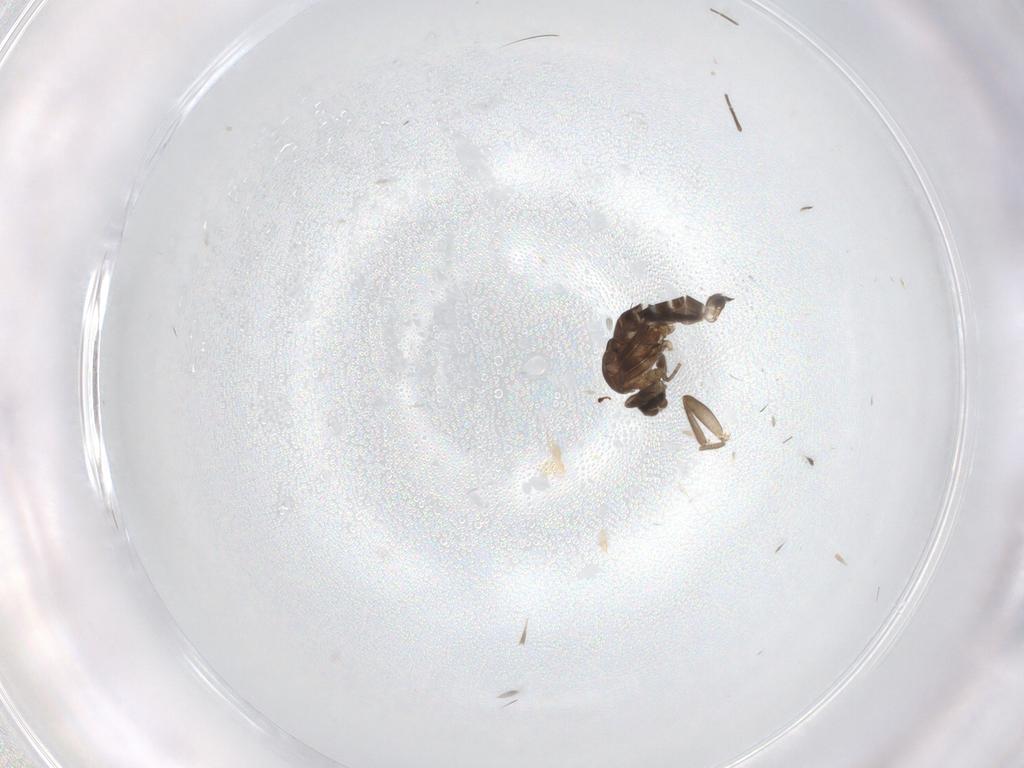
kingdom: Animalia
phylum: Arthropoda
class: Insecta
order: Diptera
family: Chironomidae
